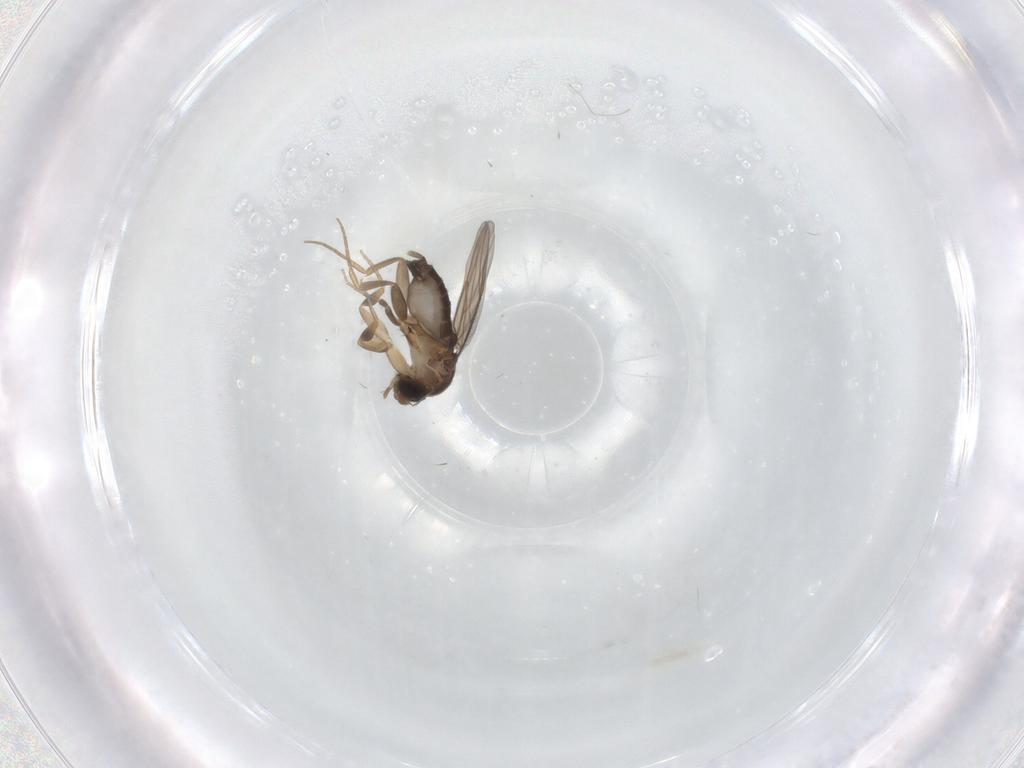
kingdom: Animalia
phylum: Arthropoda
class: Insecta
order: Diptera
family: Phoridae
